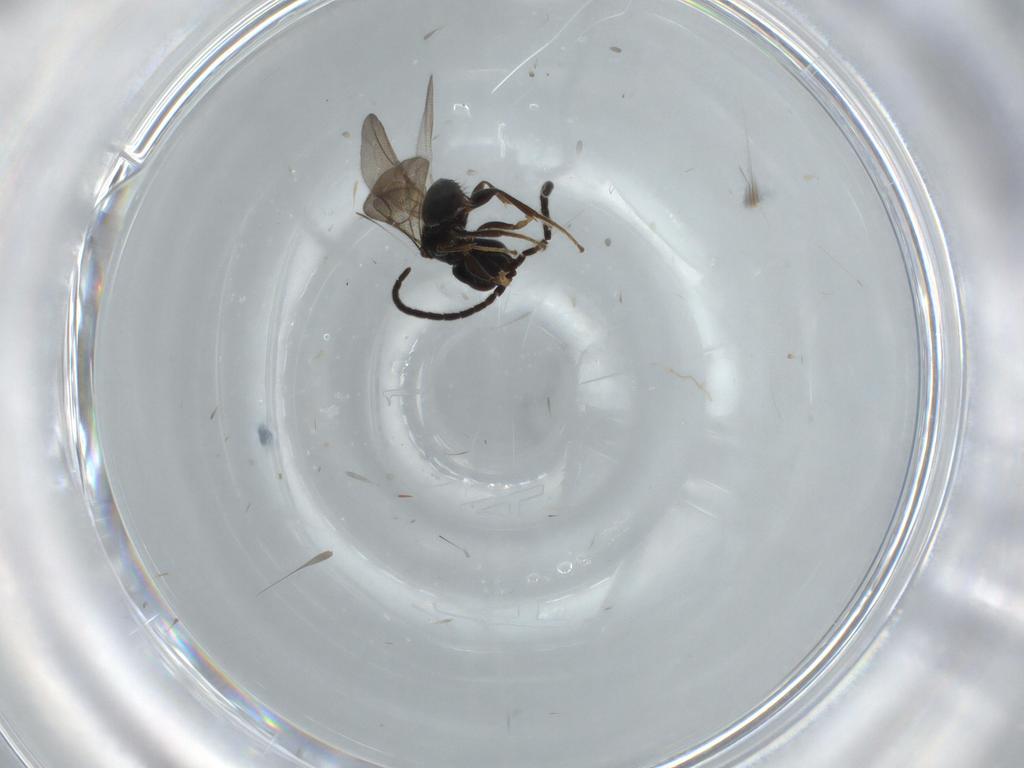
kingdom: Animalia
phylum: Arthropoda
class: Insecta
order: Hymenoptera
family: Bethylidae
